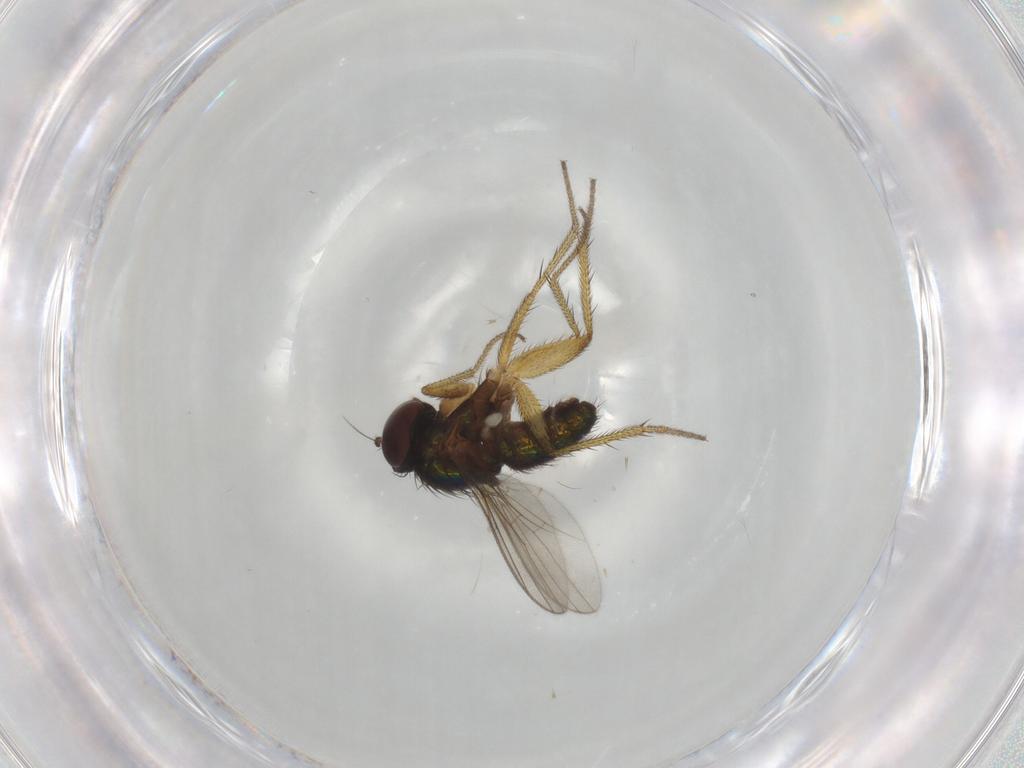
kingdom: Animalia
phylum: Arthropoda
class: Insecta
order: Diptera
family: Dolichopodidae
